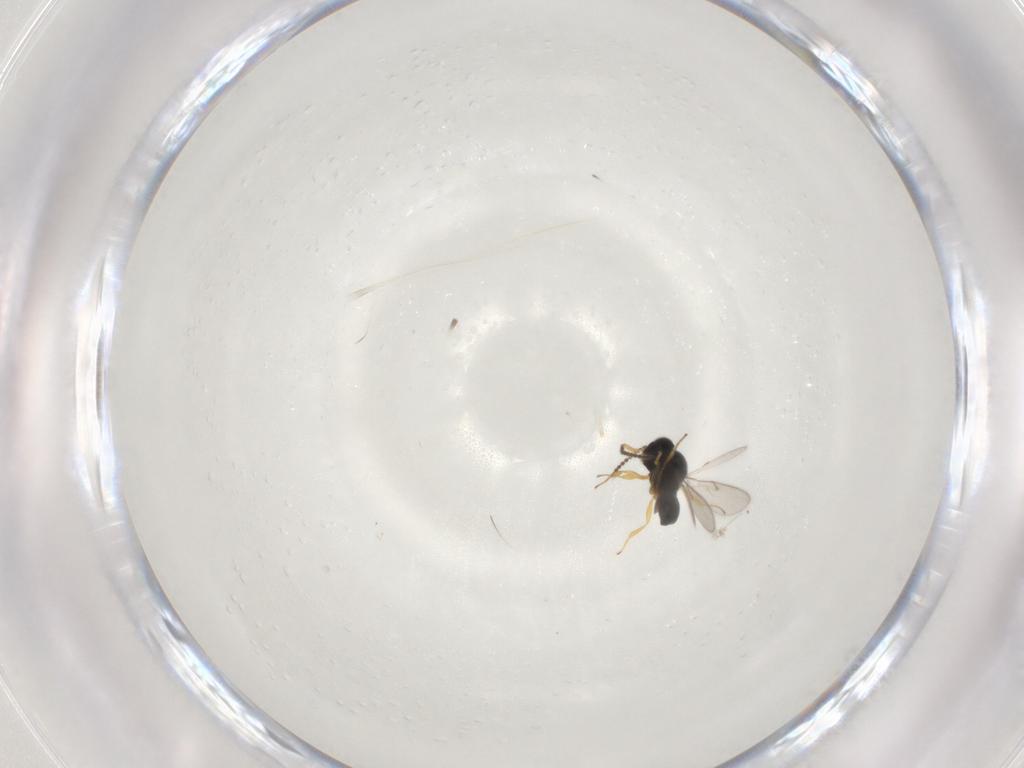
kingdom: Animalia
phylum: Arthropoda
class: Insecta
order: Hymenoptera
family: Scelionidae
